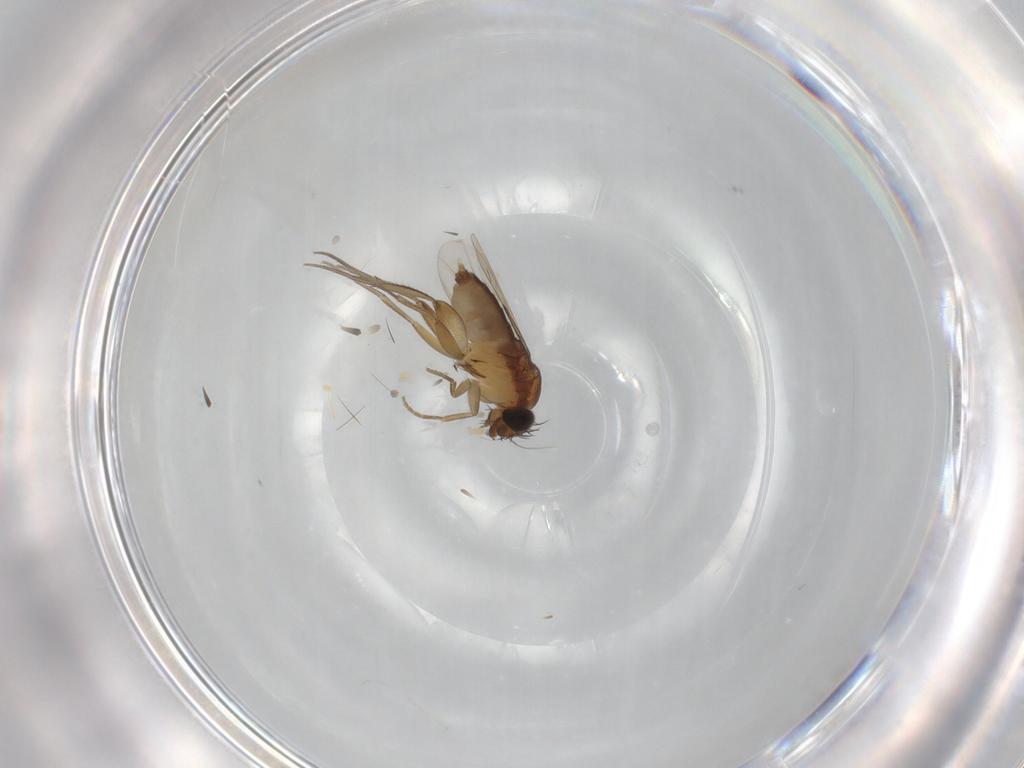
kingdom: Animalia
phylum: Arthropoda
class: Insecta
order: Diptera
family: Phoridae
